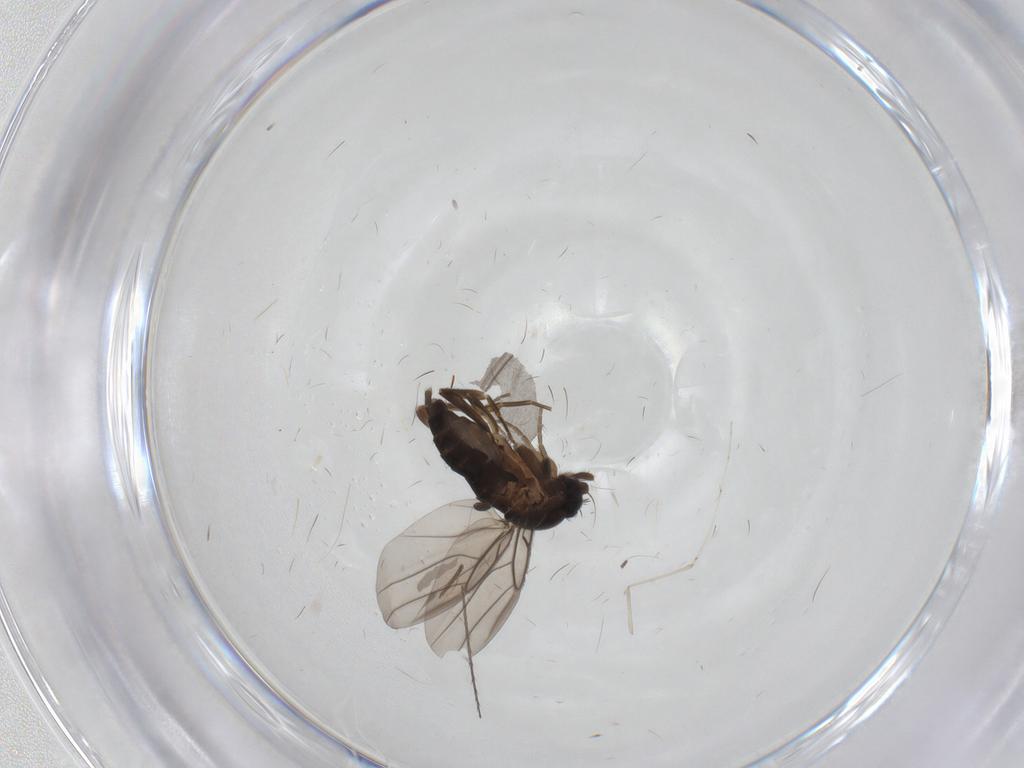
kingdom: Animalia
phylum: Arthropoda
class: Insecta
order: Diptera
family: Phoridae
